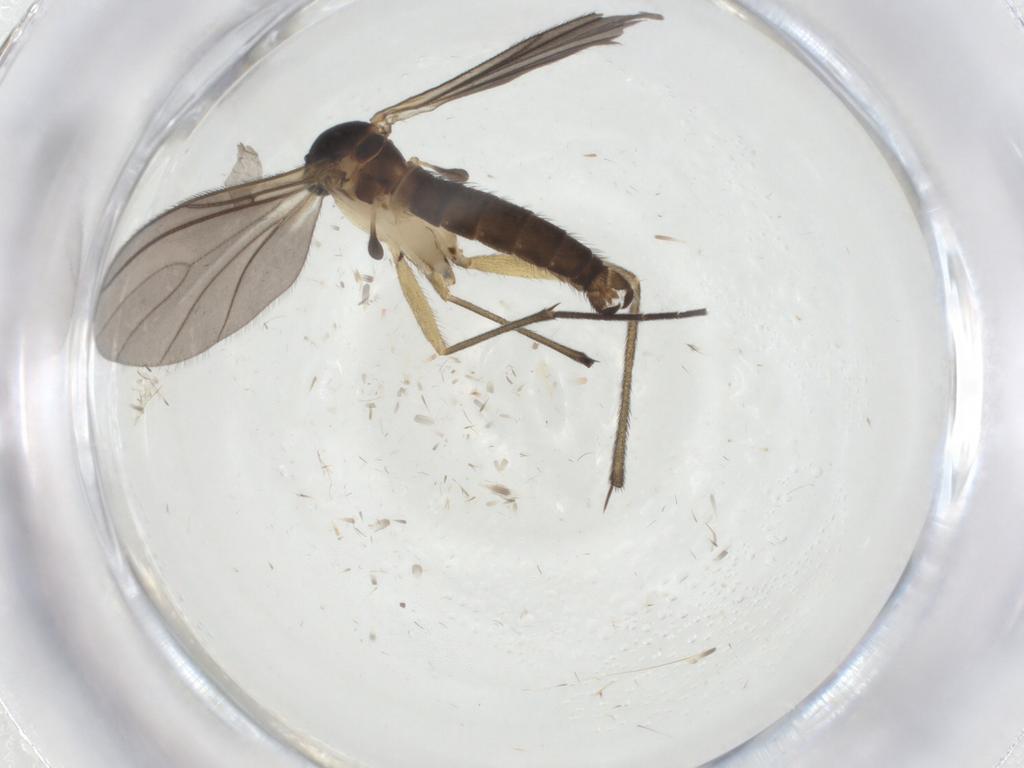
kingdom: Animalia
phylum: Arthropoda
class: Insecta
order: Diptera
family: Sciaridae
